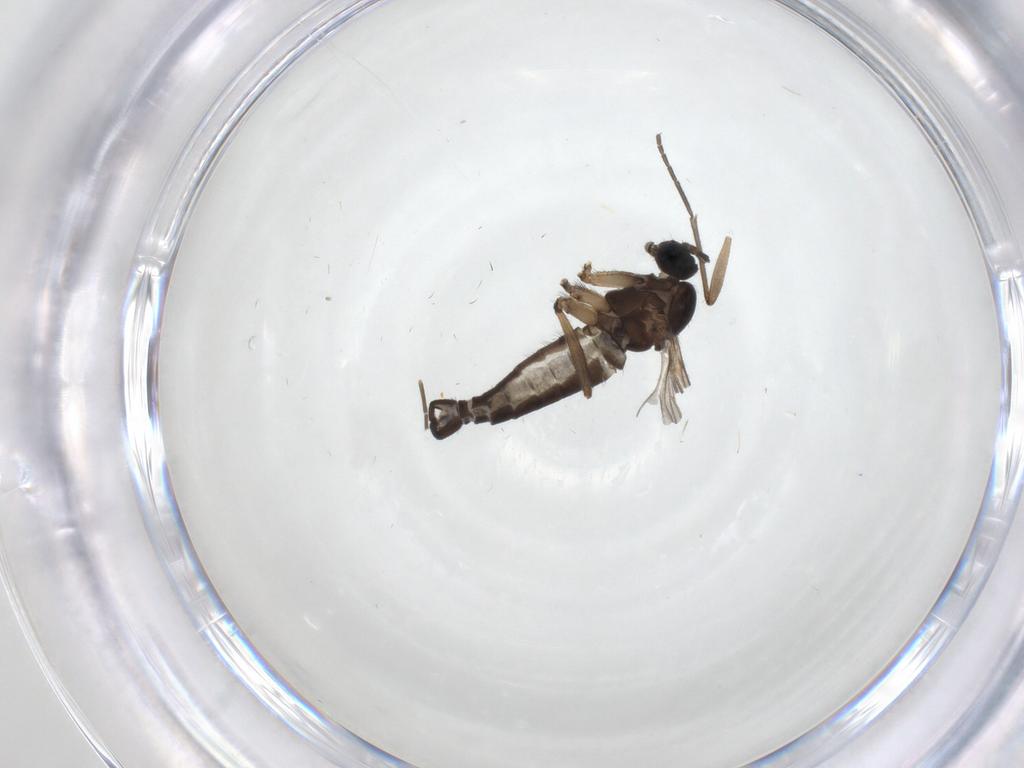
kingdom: Animalia
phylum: Arthropoda
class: Insecta
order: Diptera
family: Sciaridae
